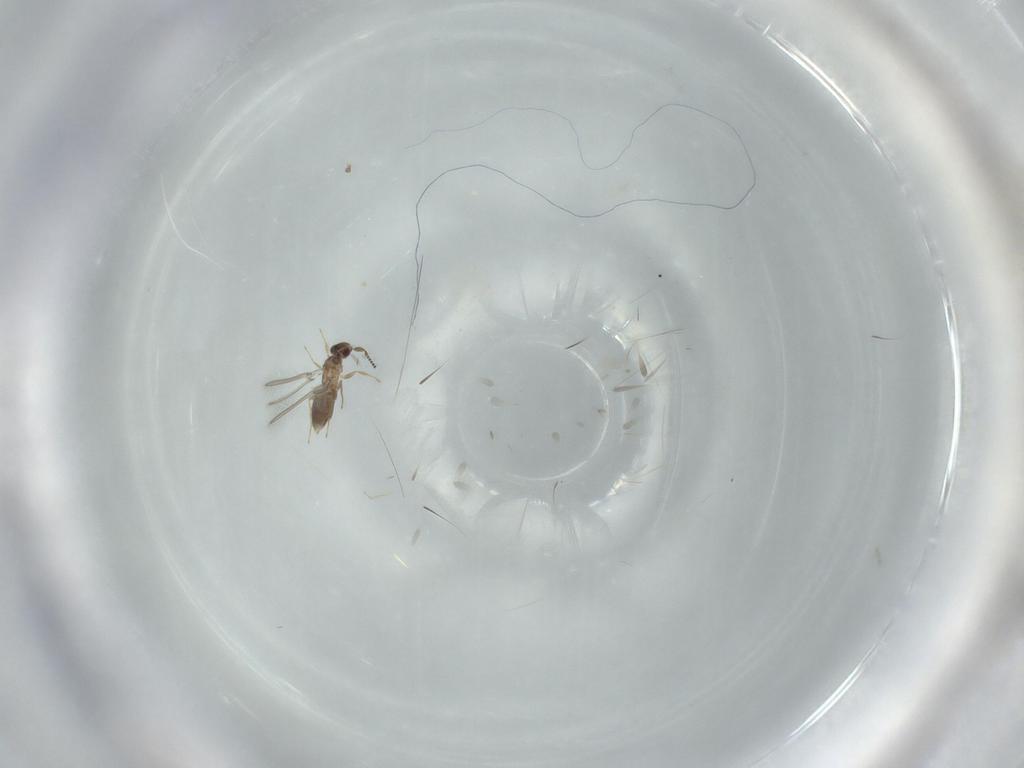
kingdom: Animalia
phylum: Arthropoda
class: Insecta
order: Hymenoptera
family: Mymaridae
